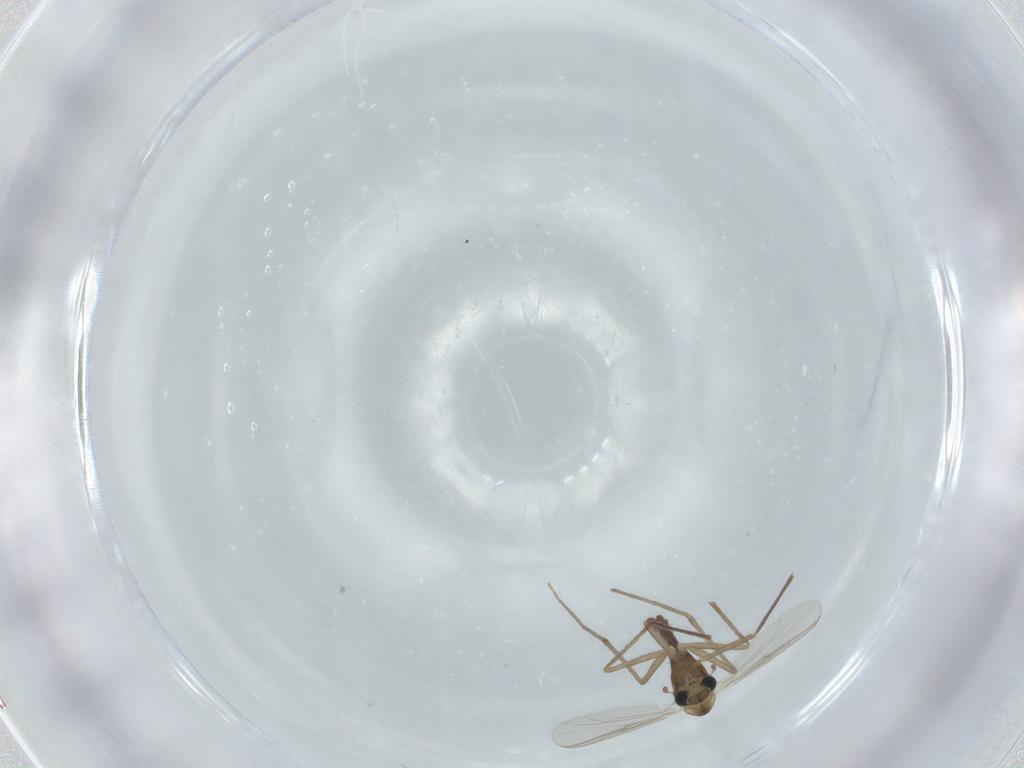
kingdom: Animalia
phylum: Arthropoda
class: Insecta
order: Diptera
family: Chironomidae
